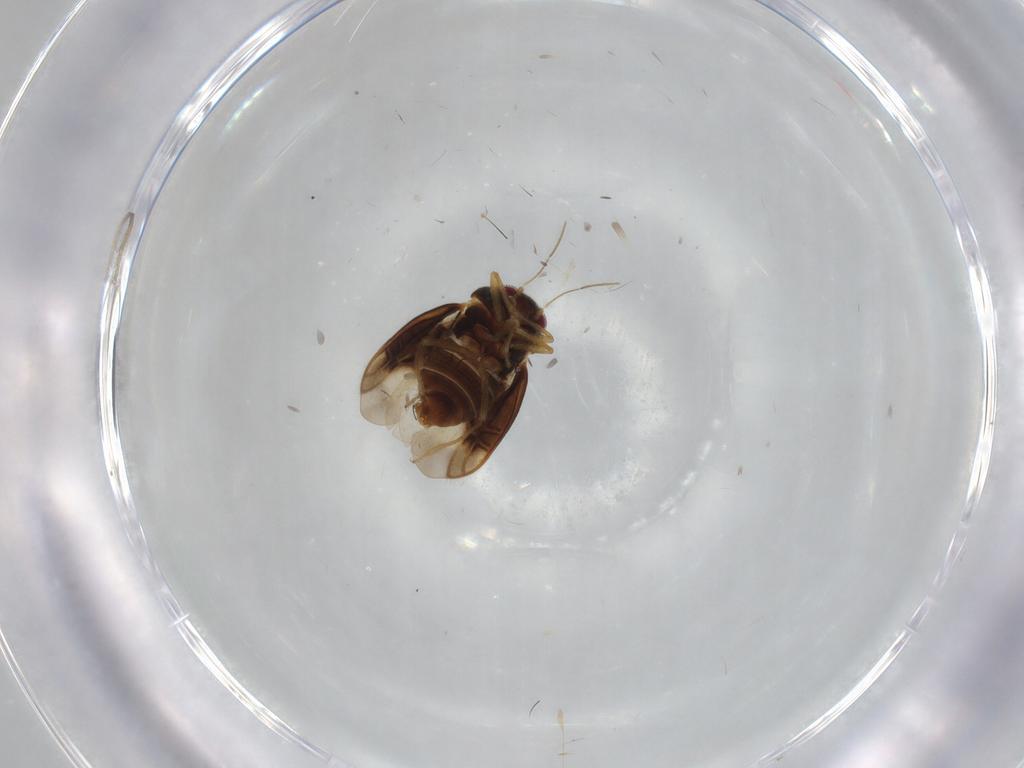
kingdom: Animalia
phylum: Arthropoda
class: Insecta
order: Hemiptera
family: Schizopteridae
